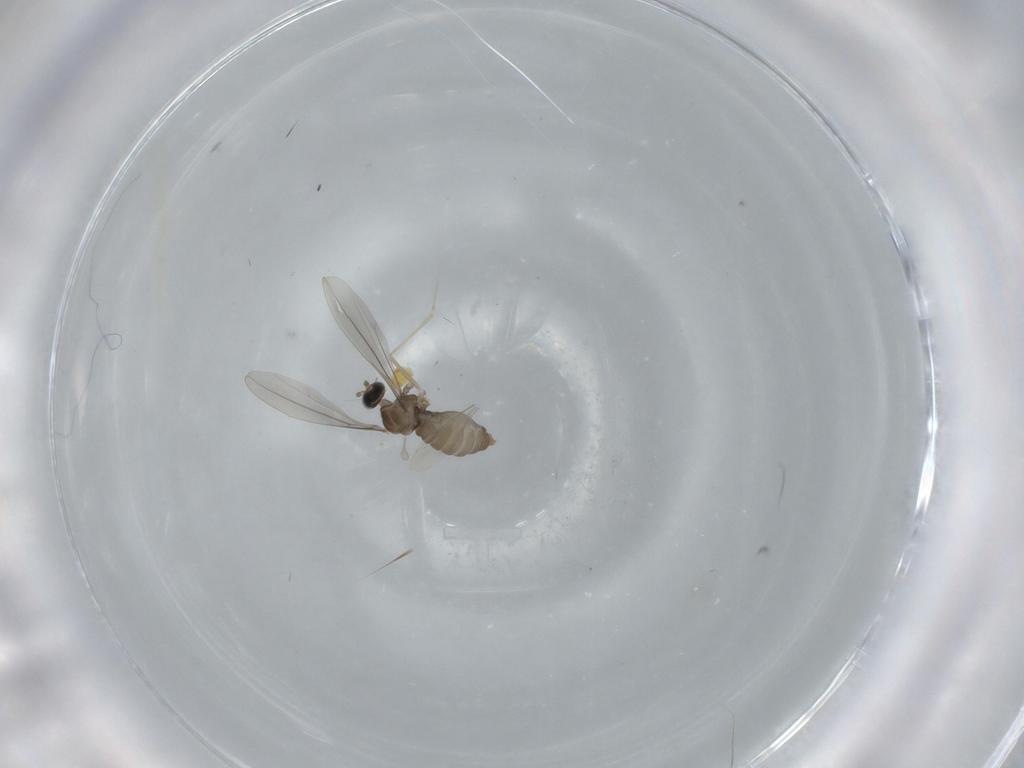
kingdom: Animalia
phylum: Arthropoda
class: Insecta
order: Diptera
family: Cecidomyiidae
